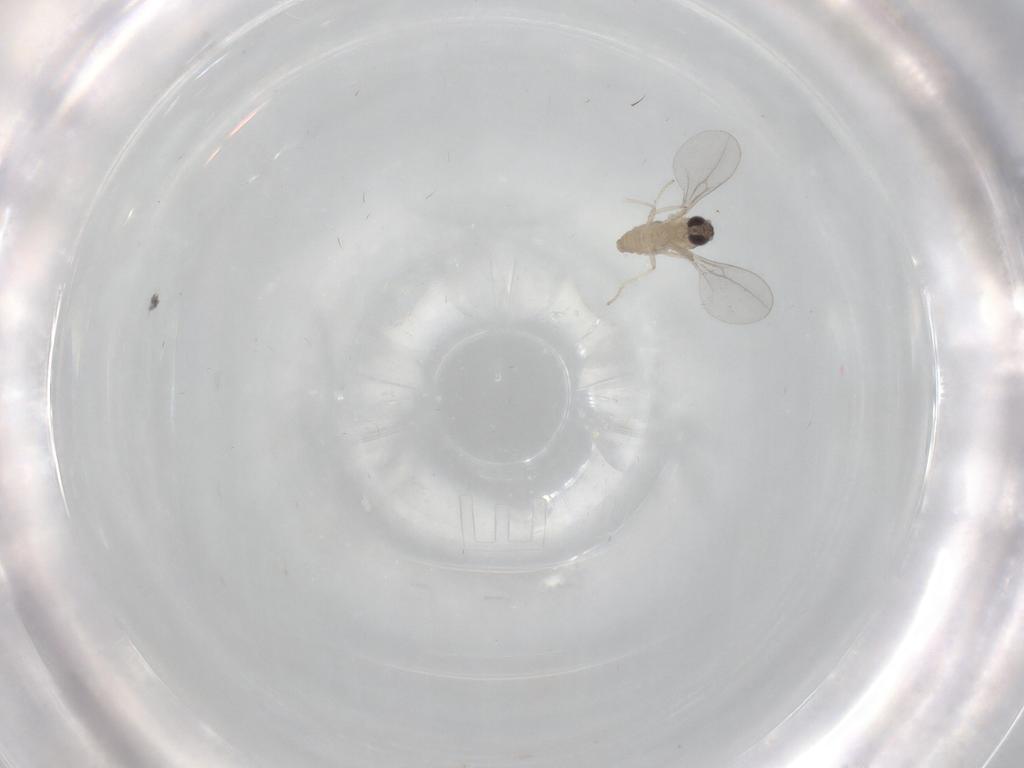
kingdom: Animalia
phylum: Arthropoda
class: Insecta
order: Diptera
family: Cecidomyiidae
